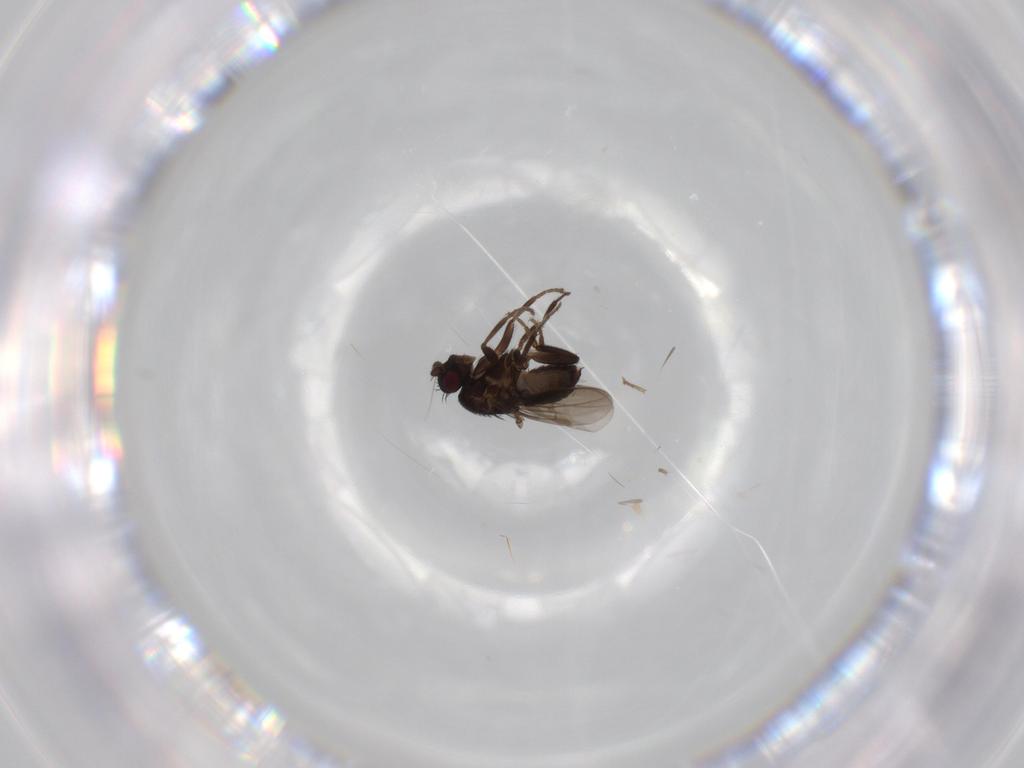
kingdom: Animalia
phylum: Arthropoda
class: Insecta
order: Diptera
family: Cecidomyiidae
